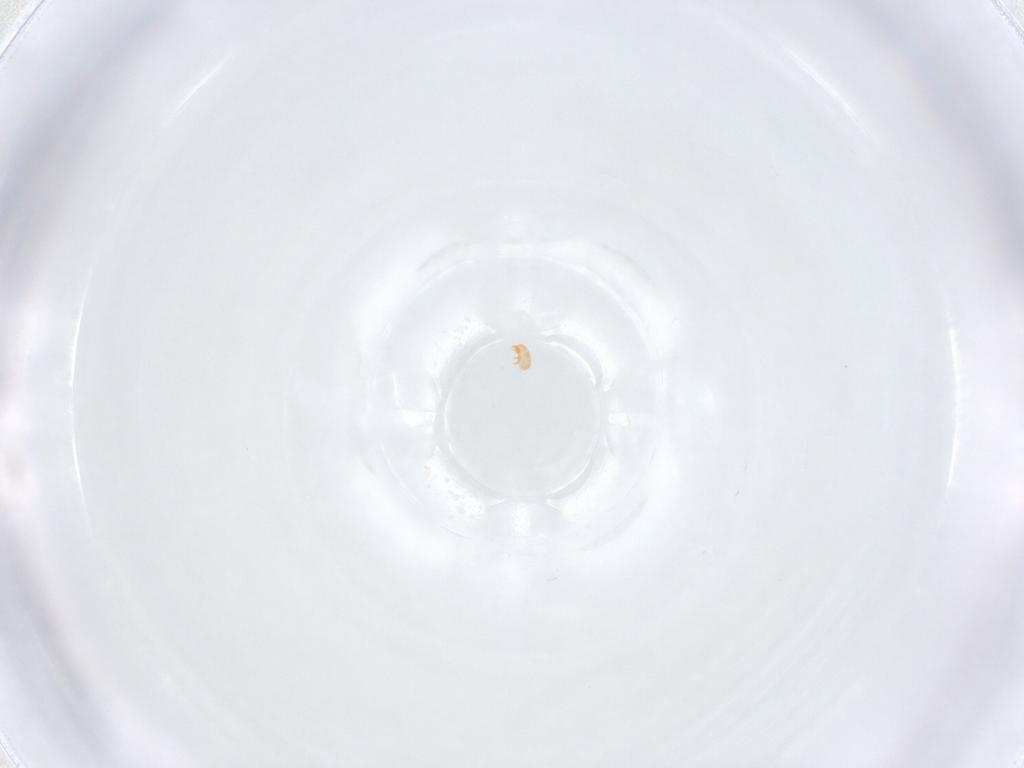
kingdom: Animalia
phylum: Arthropoda
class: Arachnida
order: Sarcoptiformes
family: Brachychthoniidae
